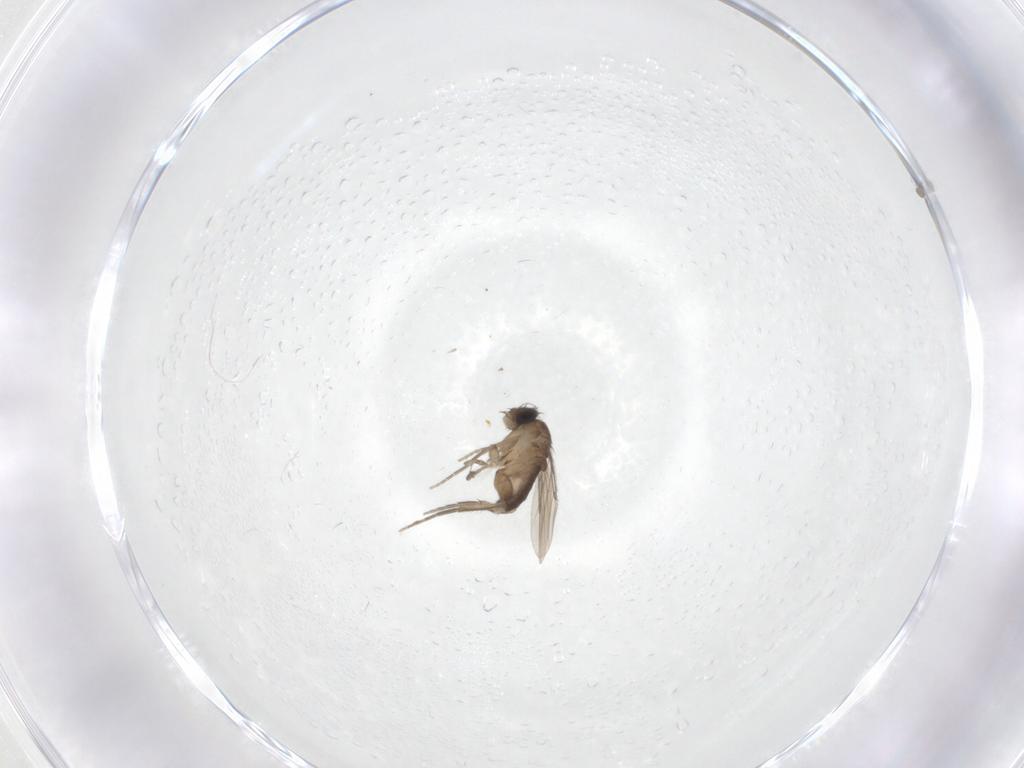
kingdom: Animalia
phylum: Arthropoda
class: Insecta
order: Diptera
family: Phoridae
